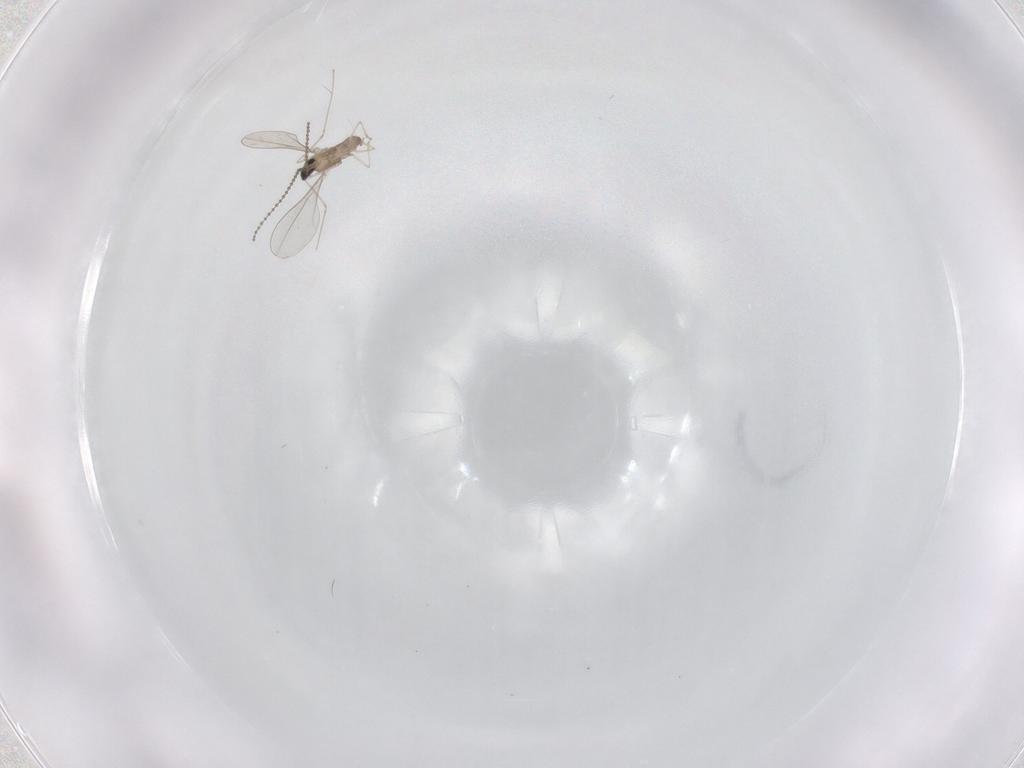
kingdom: Animalia
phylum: Arthropoda
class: Insecta
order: Diptera
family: Cecidomyiidae
